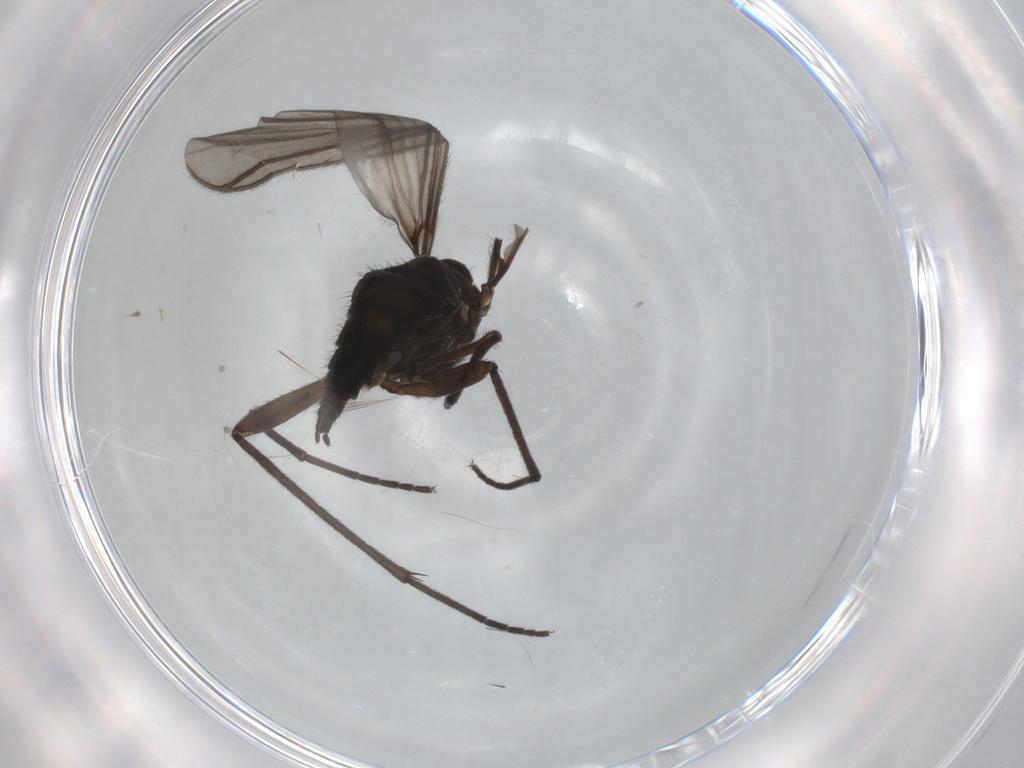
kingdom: Animalia
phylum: Arthropoda
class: Insecta
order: Diptera
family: Sciaridae
